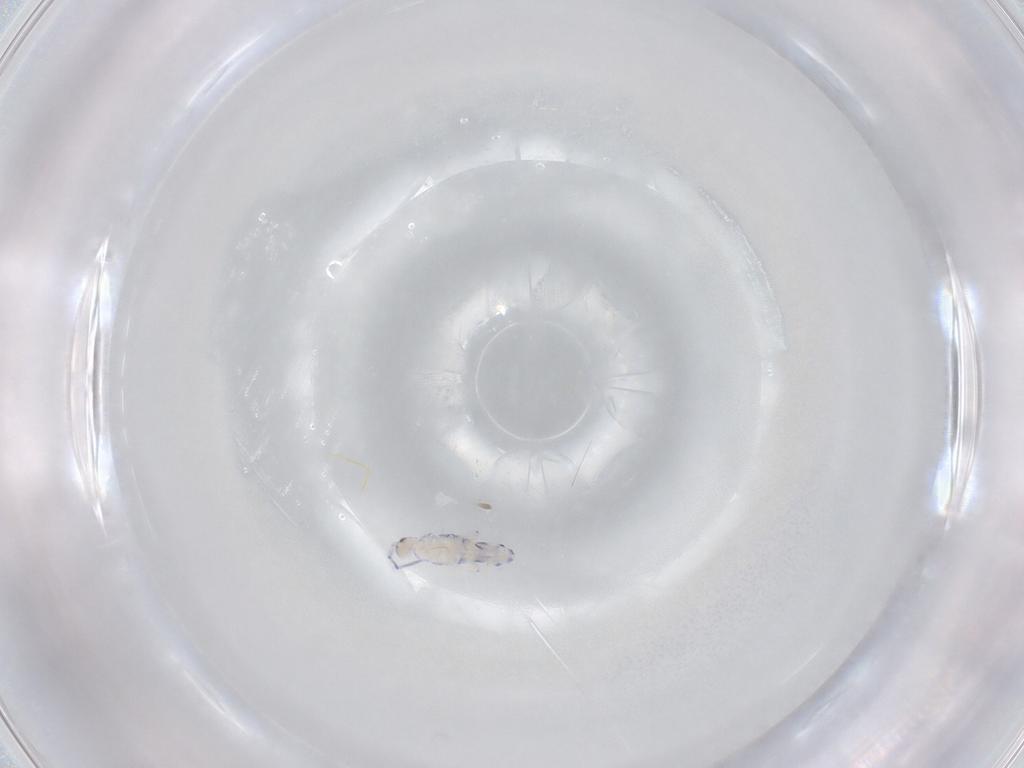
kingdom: Animalia
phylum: Arthropoda
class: Collembola
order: Entomobryomorpha
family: Entomobryidae
